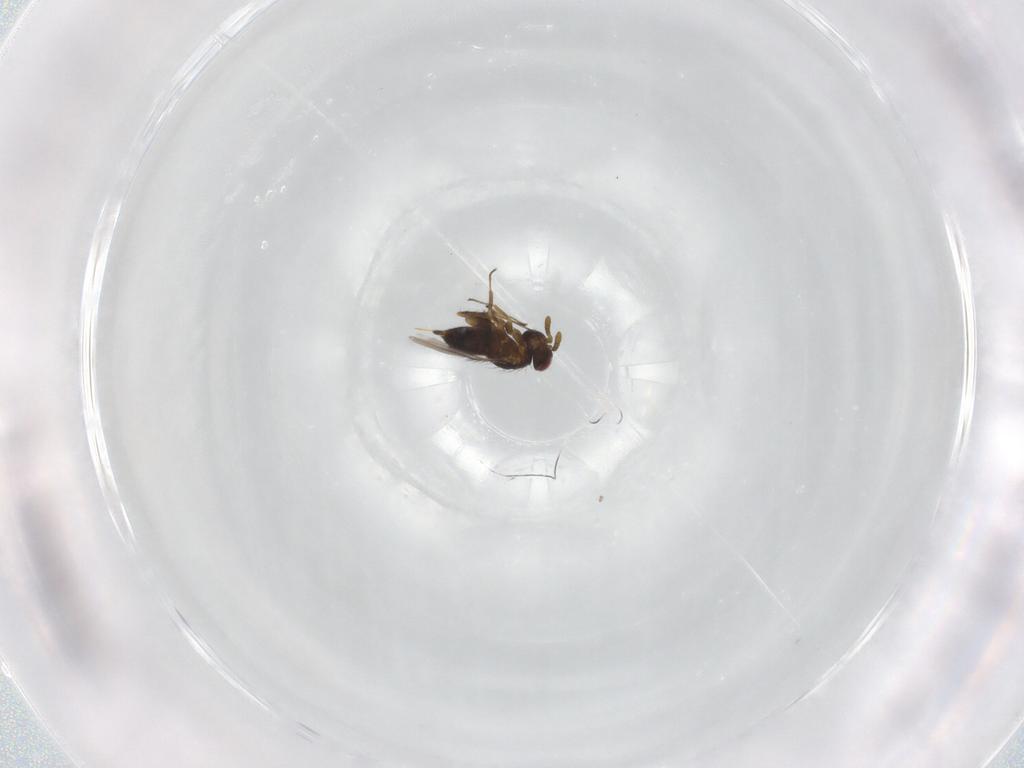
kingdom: Animalia
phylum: Arthropoda
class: Insecta
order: Hymenoptera
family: Pirenidae
